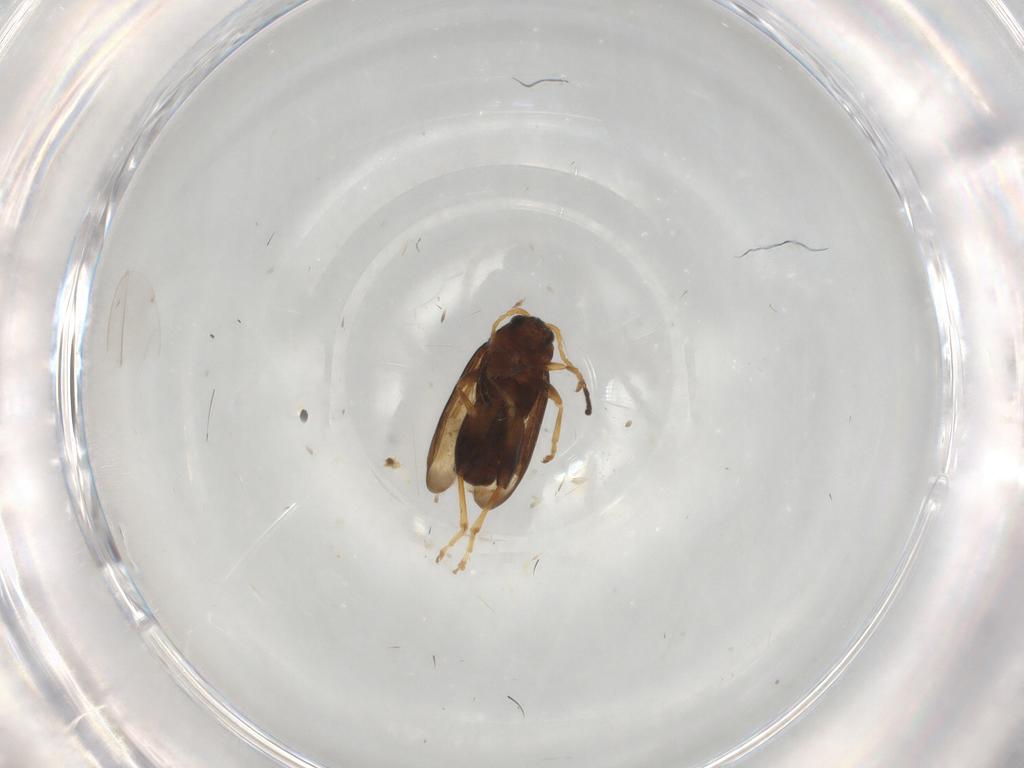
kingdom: Animalia
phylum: Arthropoda
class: Insecta
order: Coleoptera
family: Chrysomelidae
